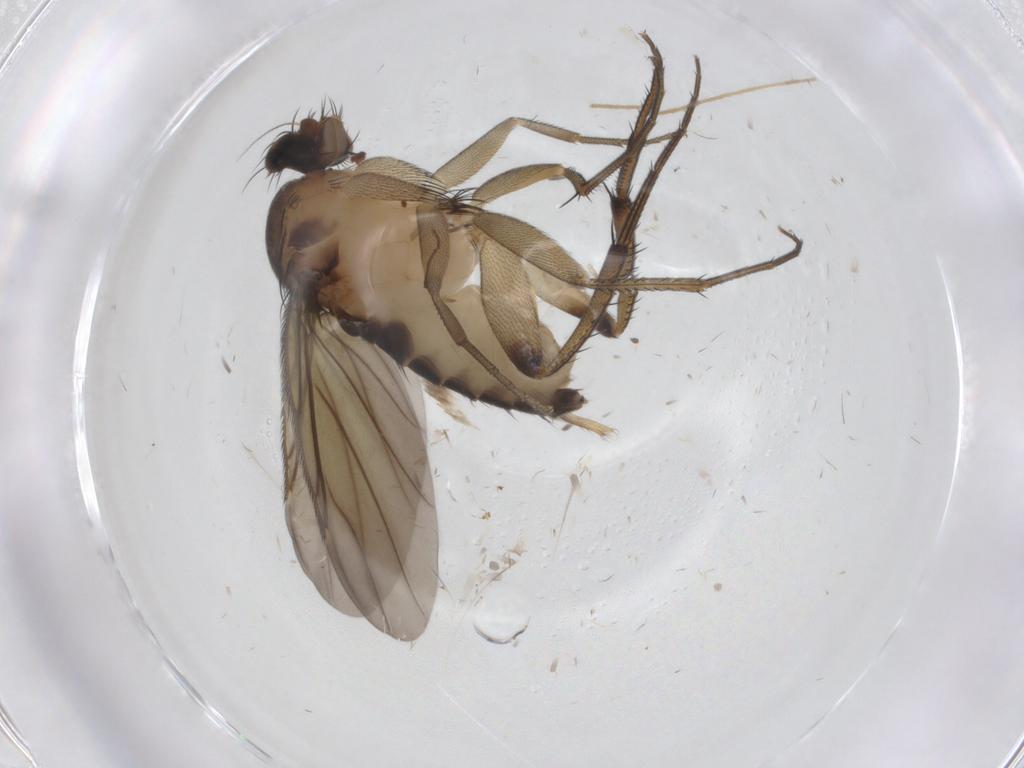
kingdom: Animalia
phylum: Arthropoda
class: Insecta
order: Diptera
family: Phoridae
